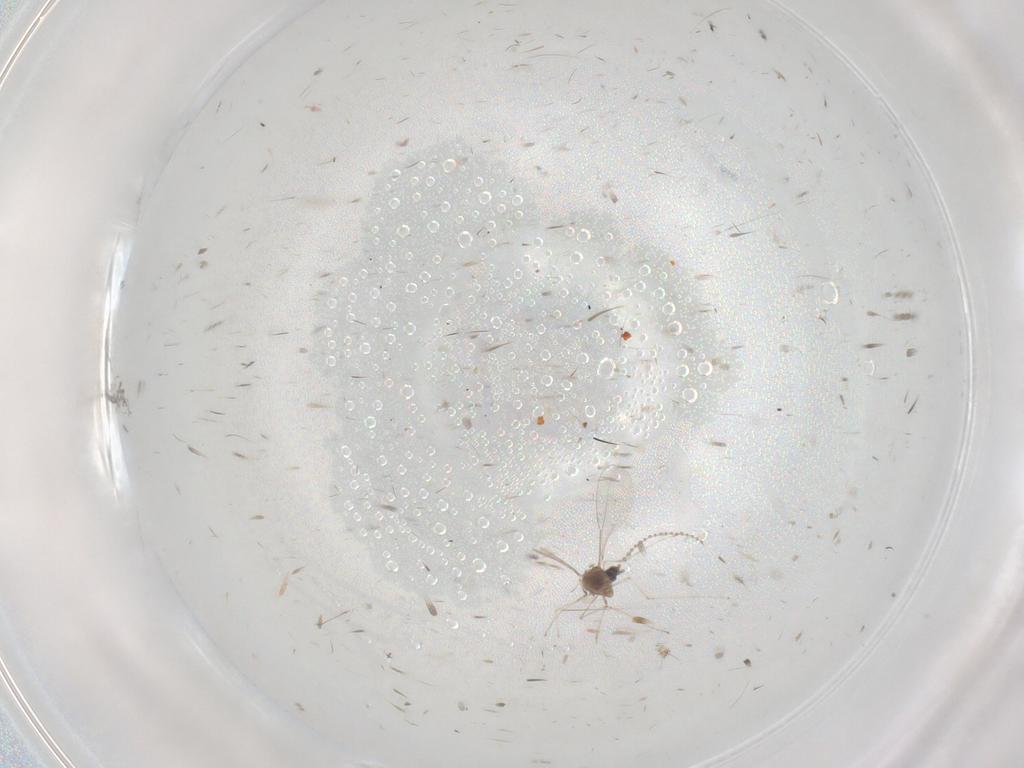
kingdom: Animalia
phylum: Arthropoda
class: Insecta
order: Diptera
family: Cecidomyiidae
